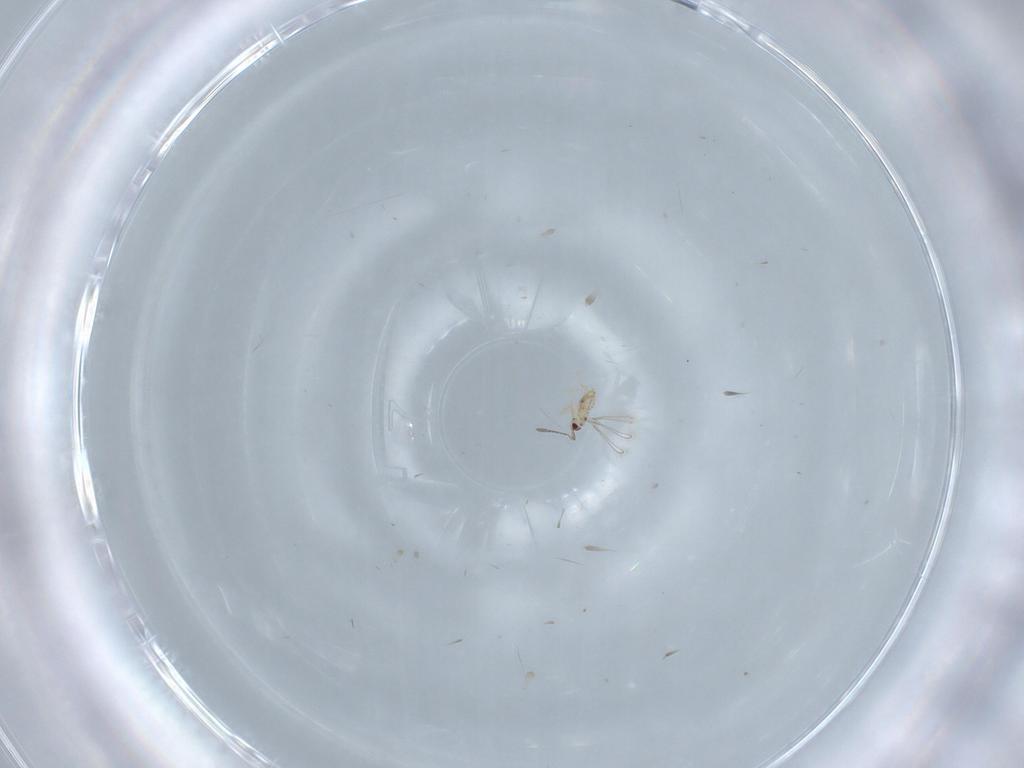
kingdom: Animalia
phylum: Arthropoda
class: Insecta
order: Hymenoptera
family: Mymaridae
